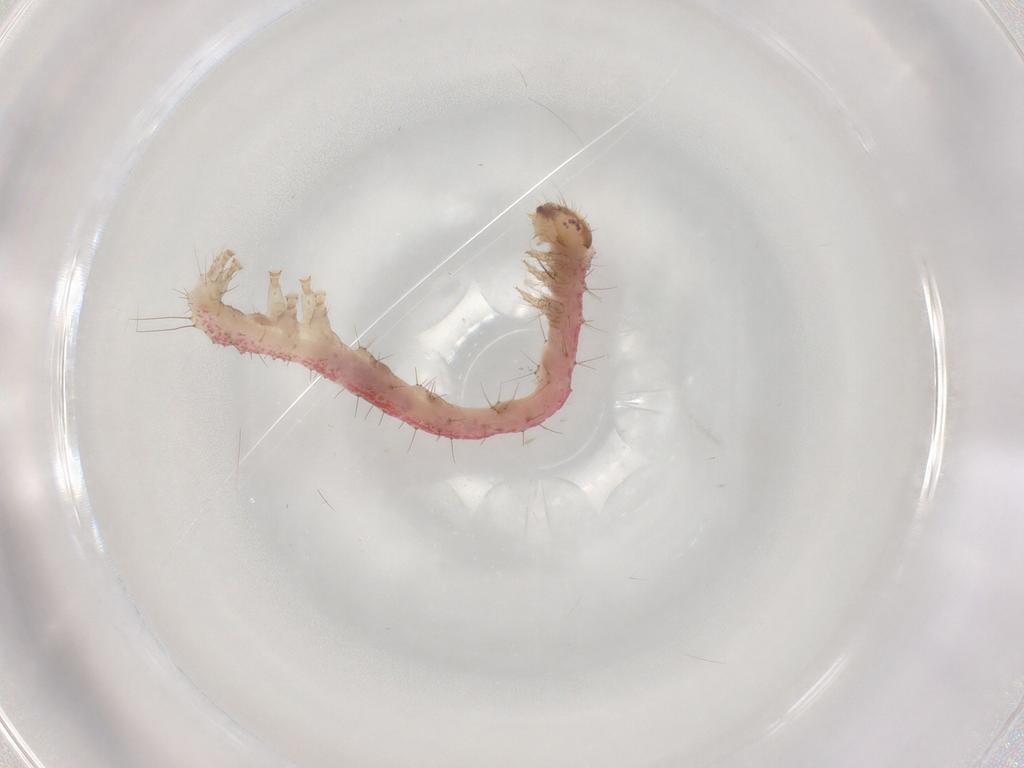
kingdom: Animalia
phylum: Arthropoda
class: Insecta
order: Lepidoptera
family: Erebidae
